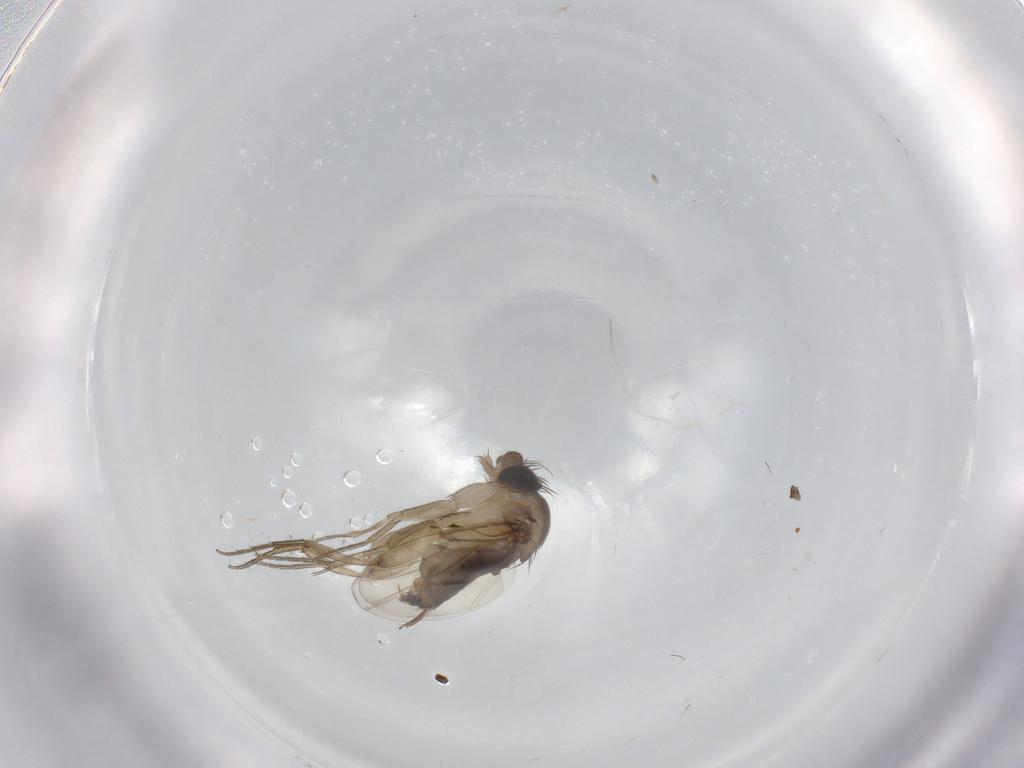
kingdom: Animalia
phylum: Arthropoda
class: Insecta
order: Diptera
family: Phoridae
